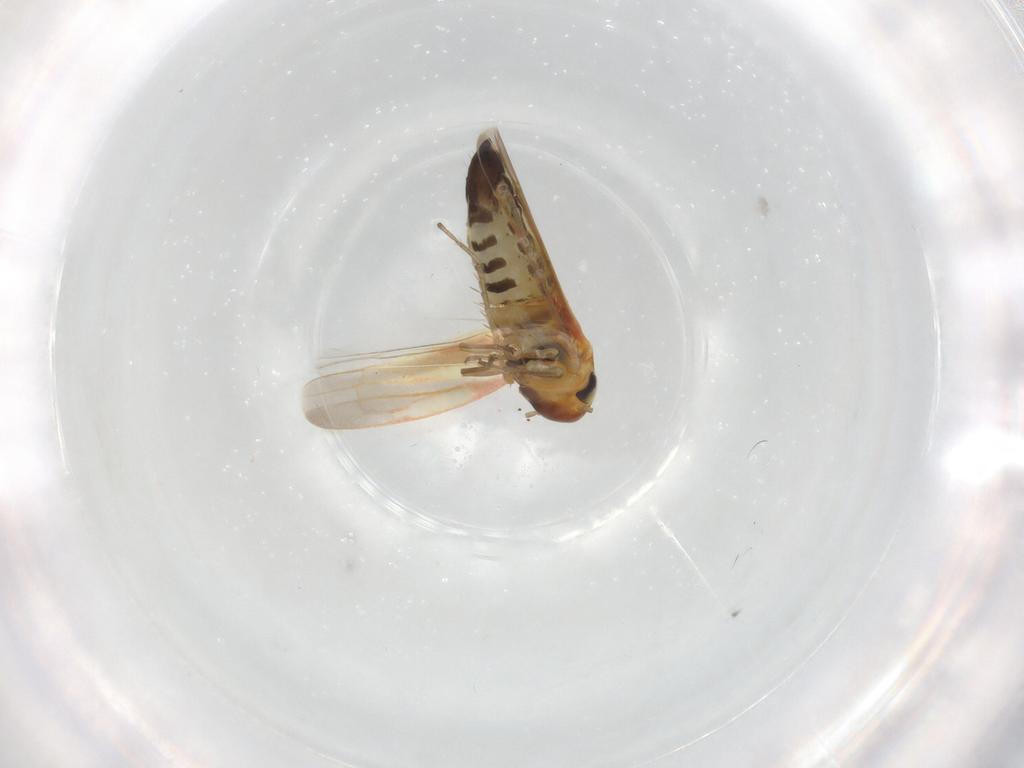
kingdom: Animalia
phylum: Arthropoda
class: Insecta
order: Hemiptera
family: Cicadellidae
